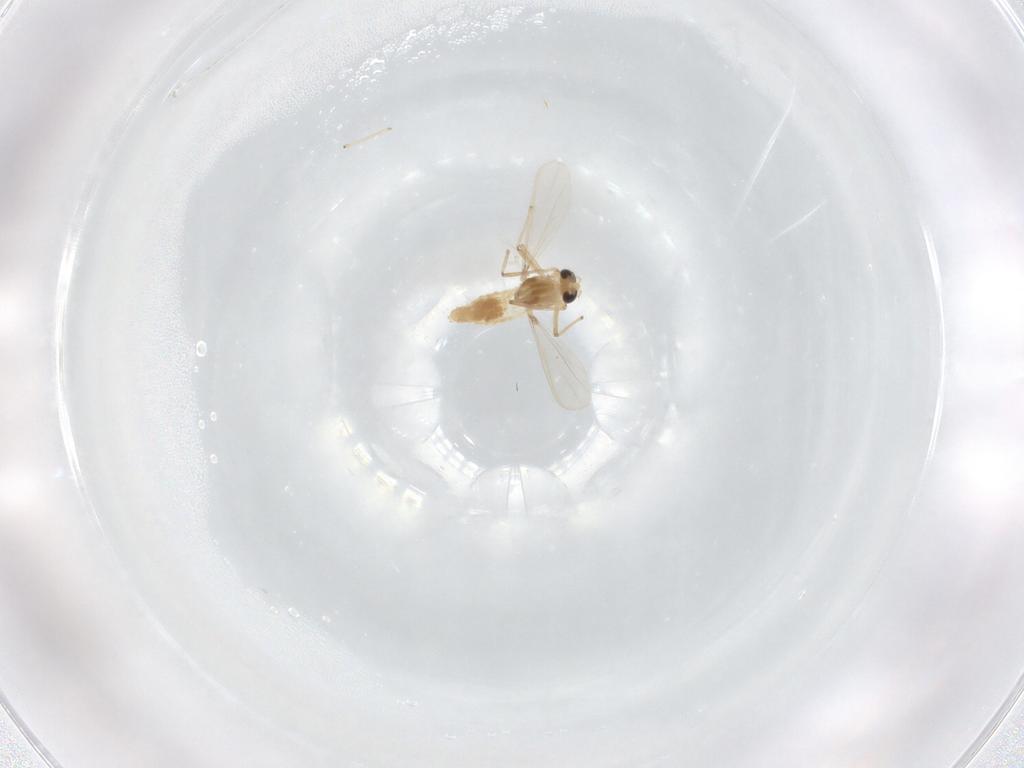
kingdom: Animalia
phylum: Arthropoda
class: Insecta
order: Diptera
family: Chironomidae
